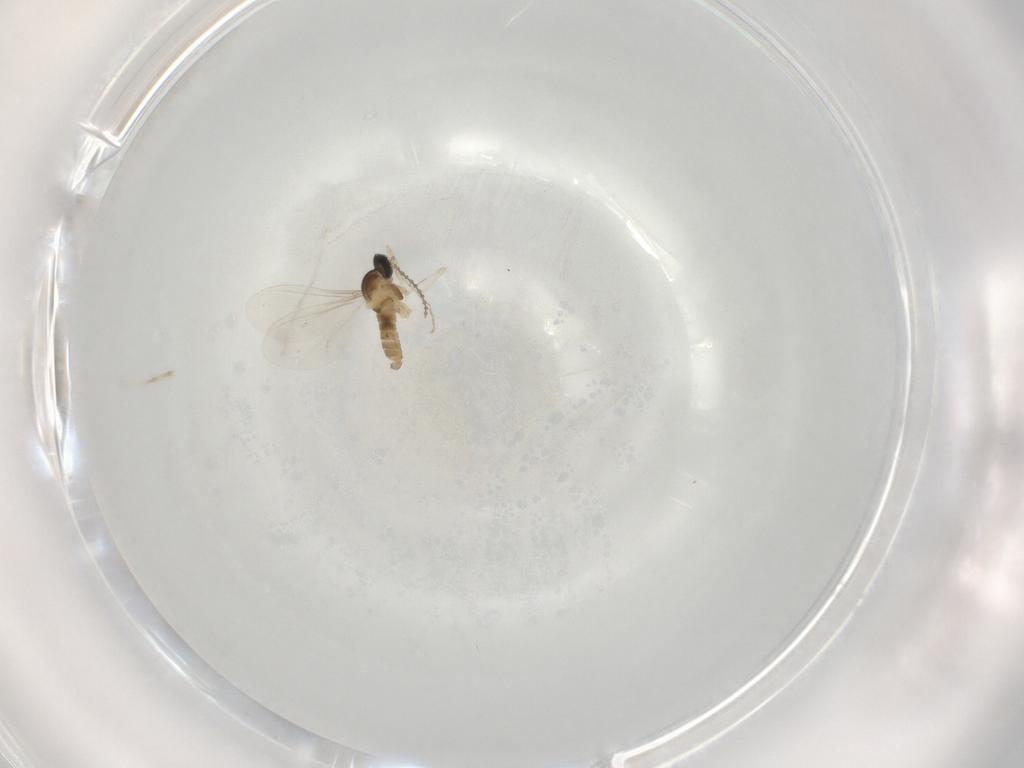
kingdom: Animalia
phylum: Arthropoda
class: Insecta
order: Diptera
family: Cecidomyiidae
